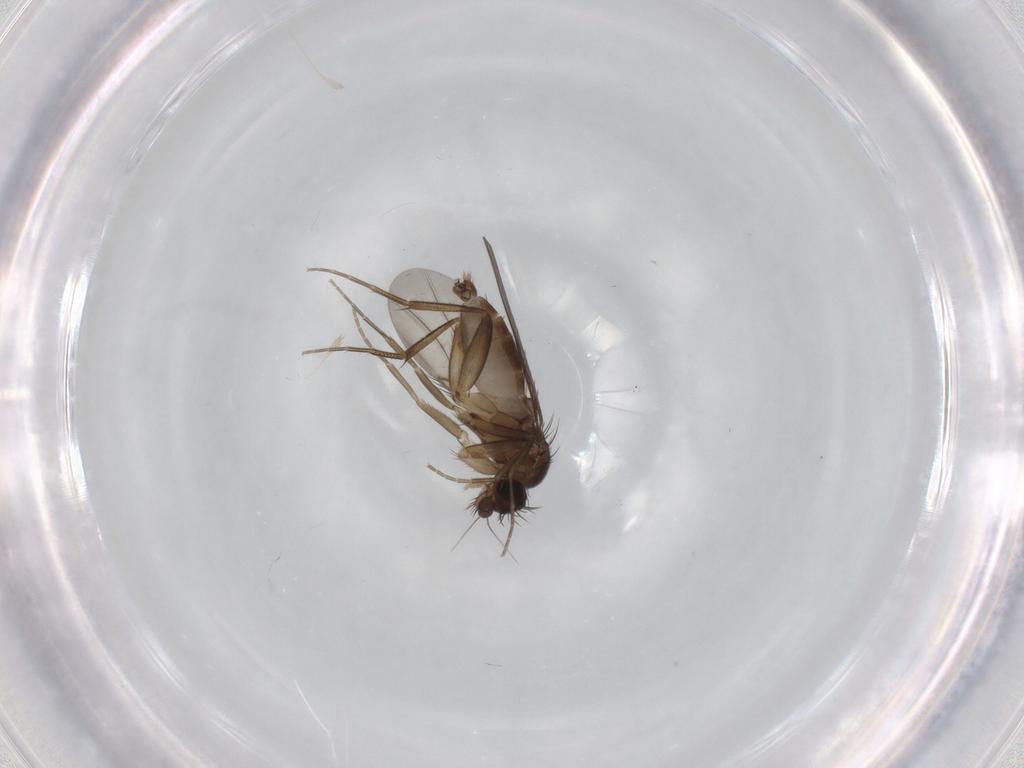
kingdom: Animalia
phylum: Arthropoda
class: Insecta
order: Diptera
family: Phoridae
